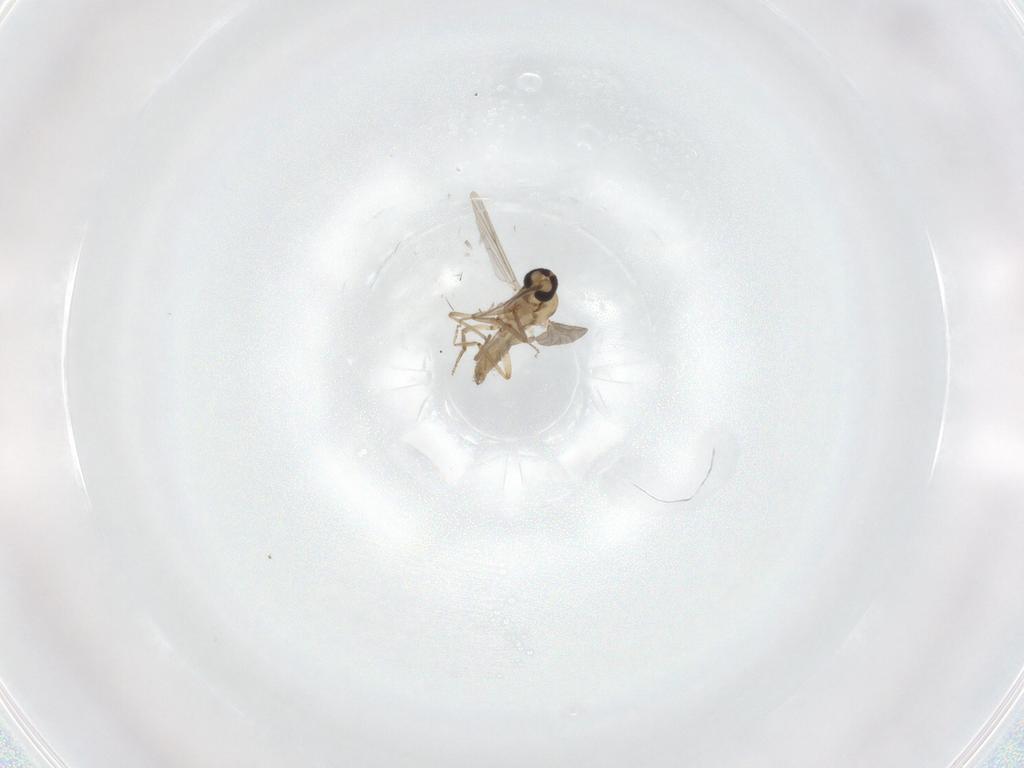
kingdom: Animalia
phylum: Arthropoda
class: Insecta
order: Diptera
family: Ceratopogonidae
